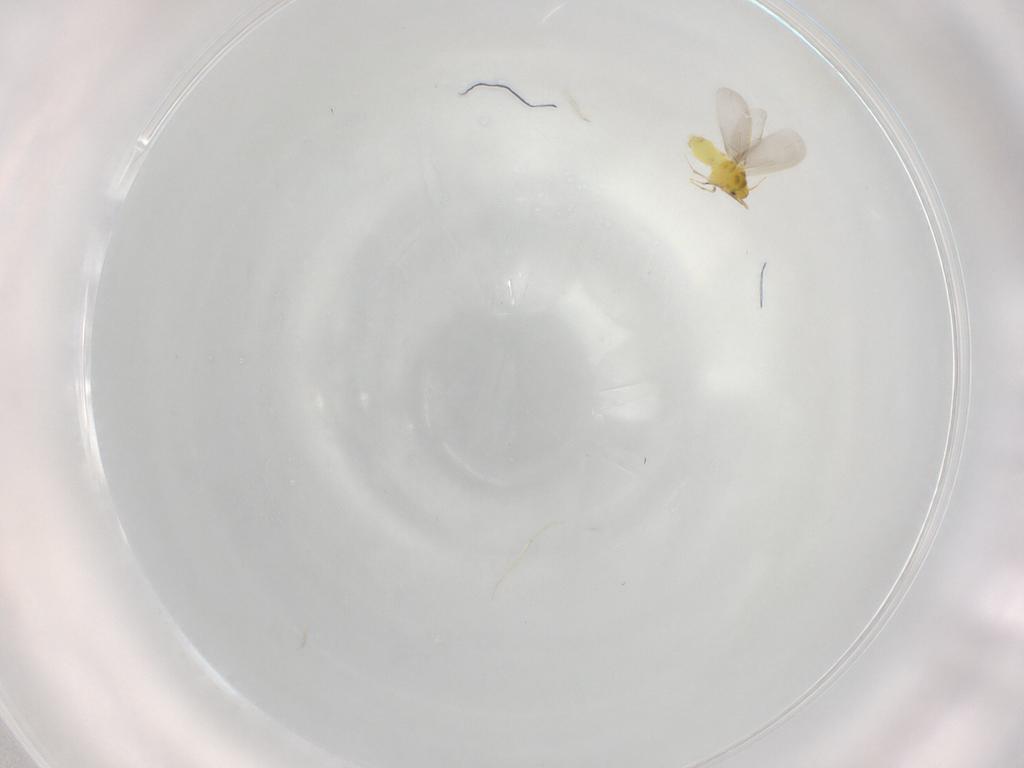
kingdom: Animalia
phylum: Arthropoda
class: Insecta
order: Hemiptera
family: Aleyrodidae
